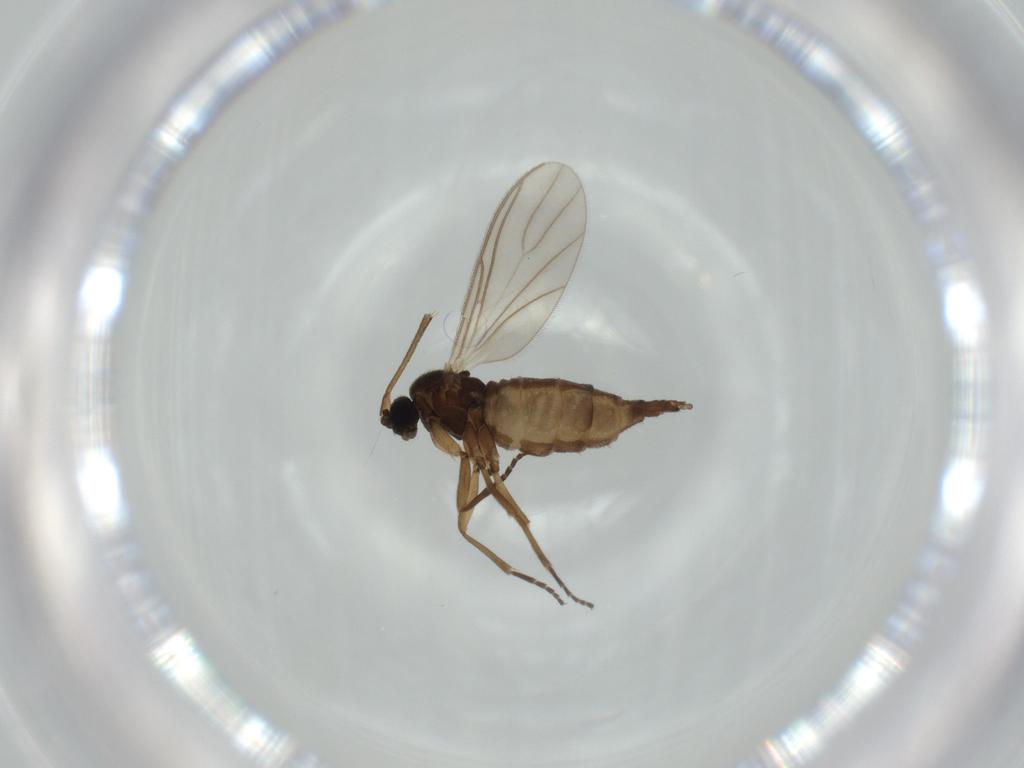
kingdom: Animalia
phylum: Arthropoda
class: Insecta
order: Diptera
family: Sciaridae
